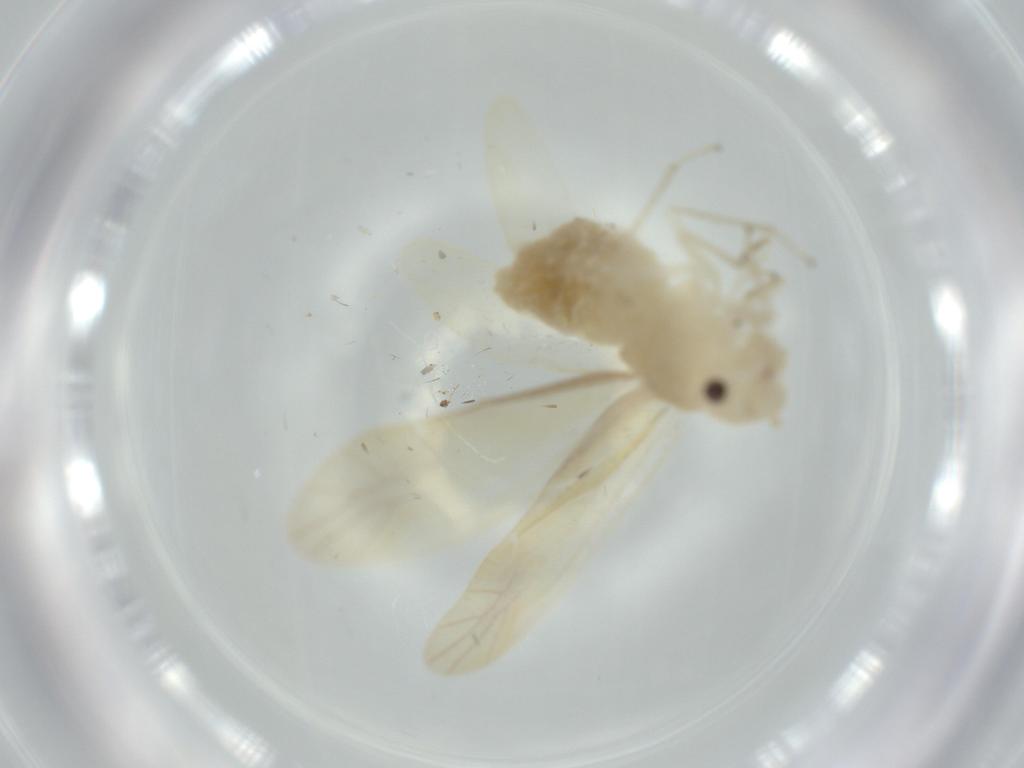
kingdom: Animalia
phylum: Arthropoda
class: Insecta
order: Psocodea
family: Caeciliusidae
